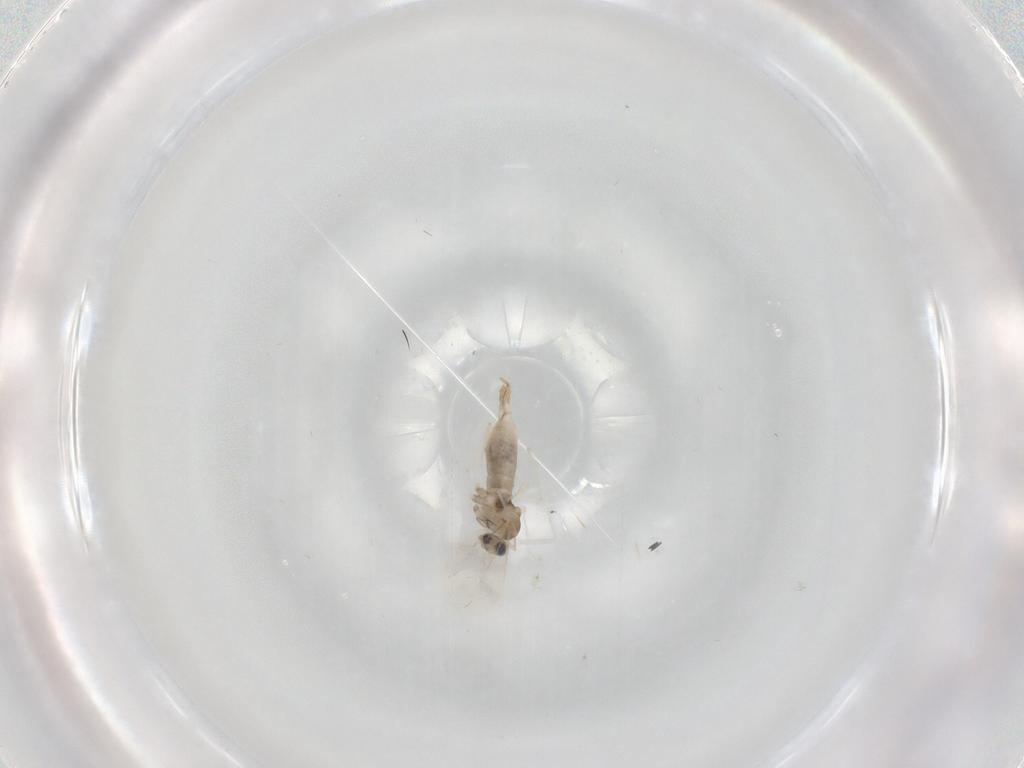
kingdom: Animalia
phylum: Arthropoda
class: Insecta
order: Diptera
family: Cecidomyiidae
